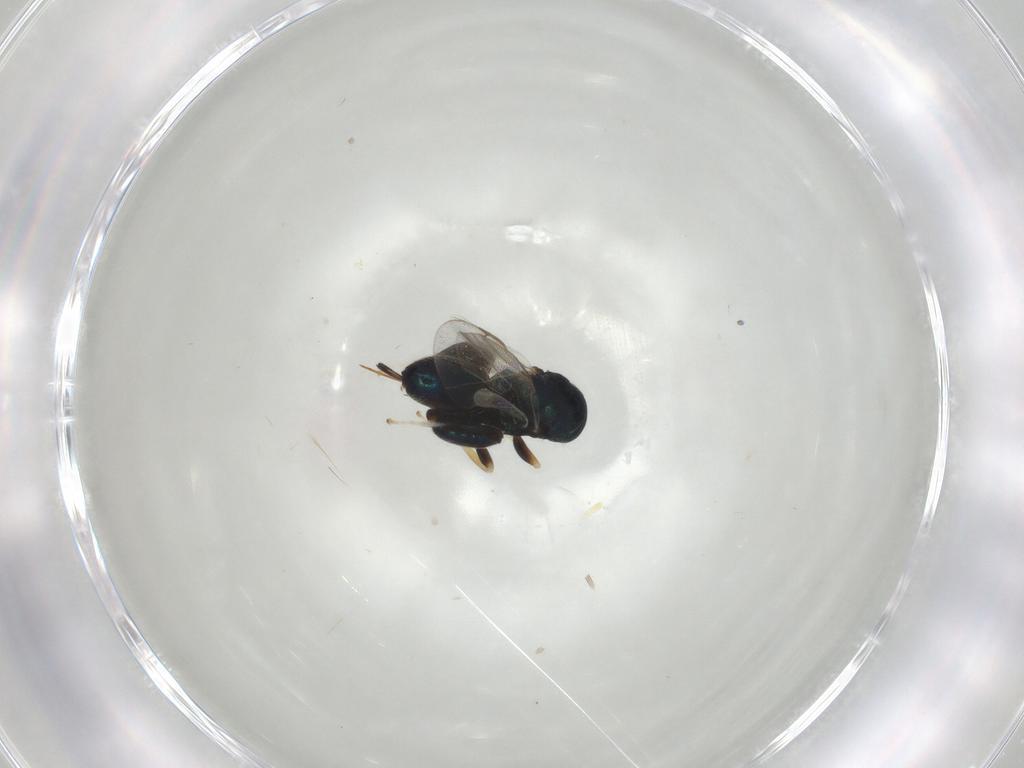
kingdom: Animalia
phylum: Arthropoda
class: Insecta
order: Hymenoptera
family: Torymidae
